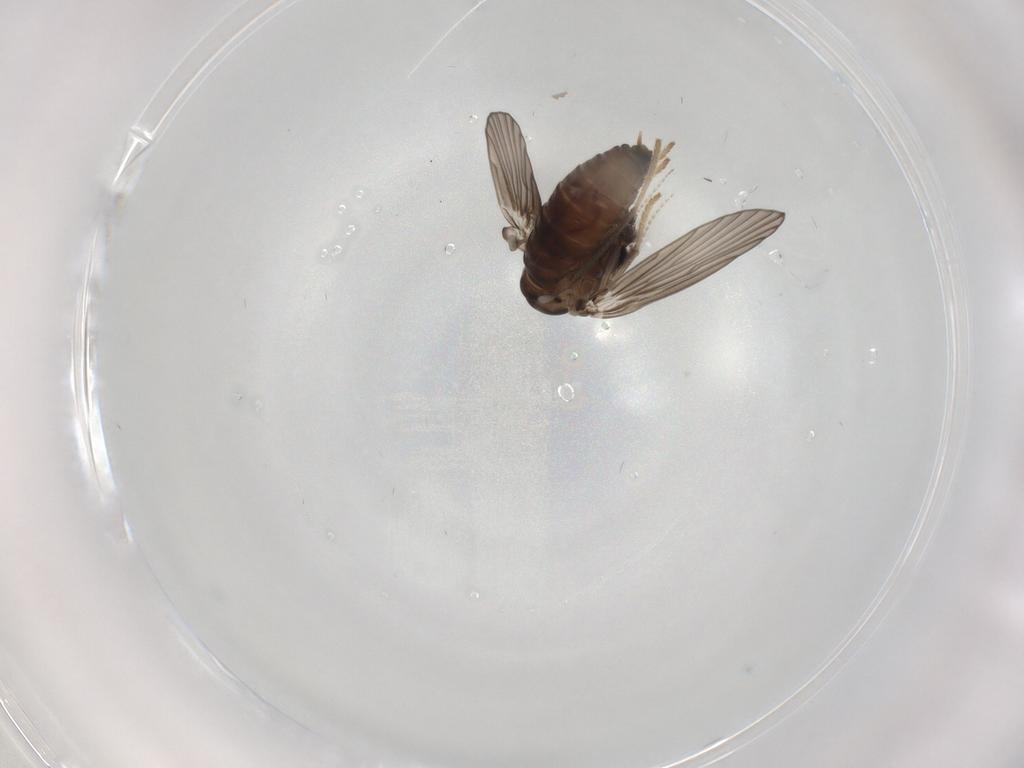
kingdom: Animalia
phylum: Arthropoda
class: Insecta
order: Diptera
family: Psychodidae
